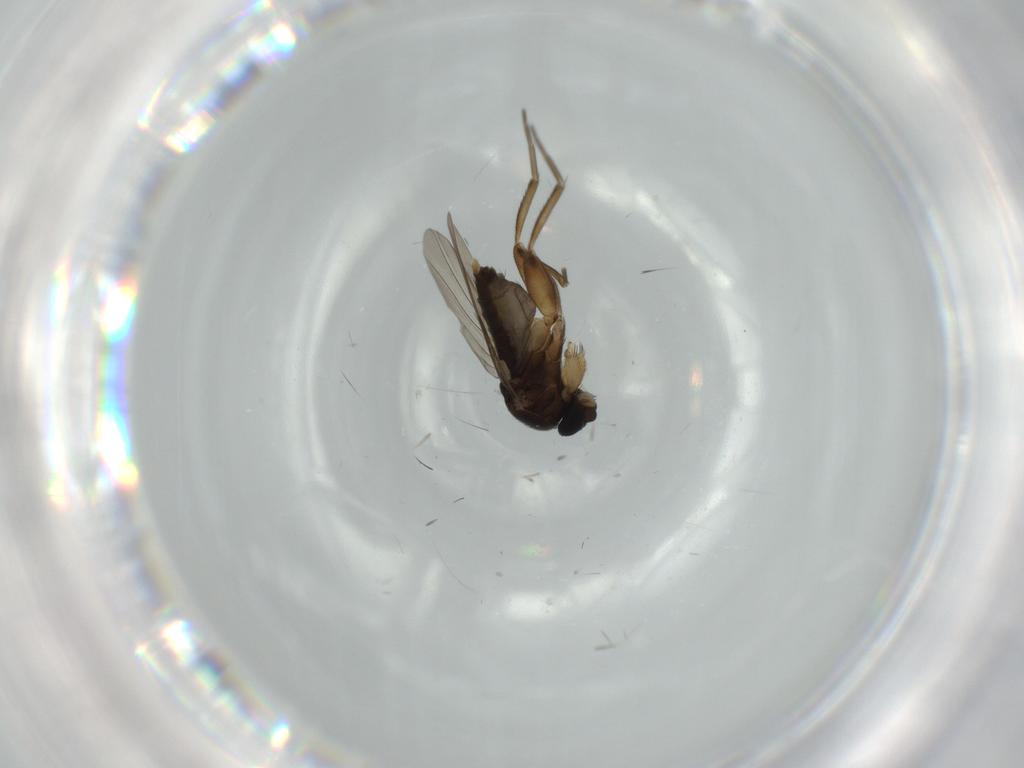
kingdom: Animalia
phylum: Arthropoda
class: Insecta
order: Diptera
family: Phoridae
